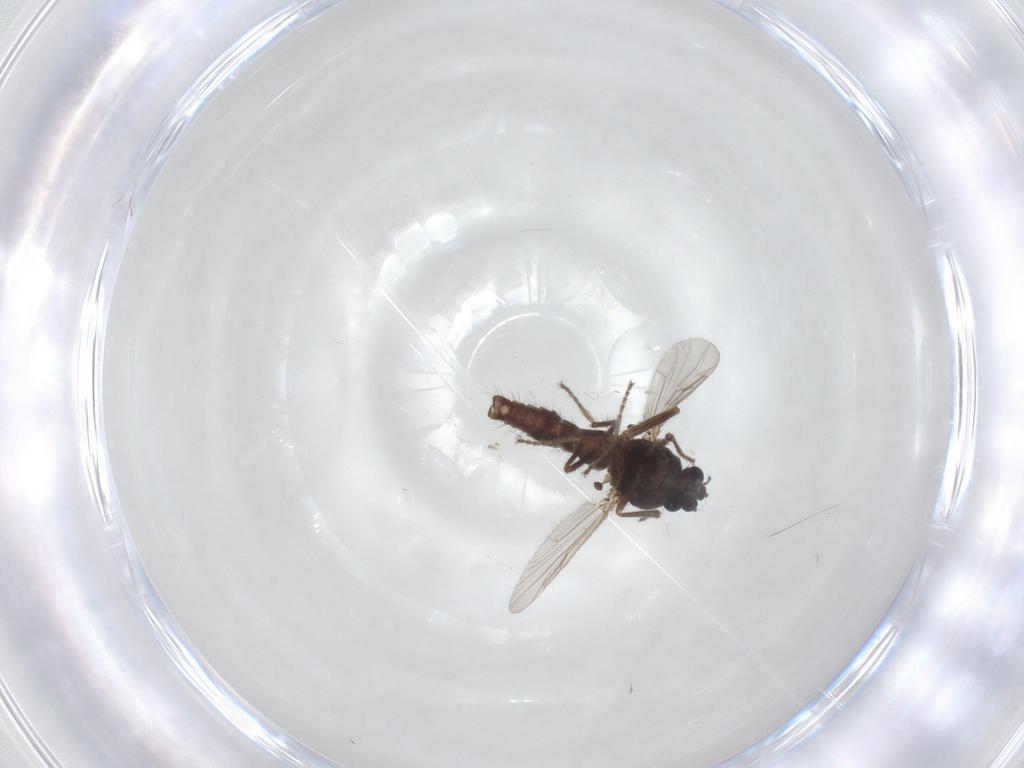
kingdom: Animalia
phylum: Arthropoda
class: Insecta
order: Diptera
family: Ceratopogonidae
